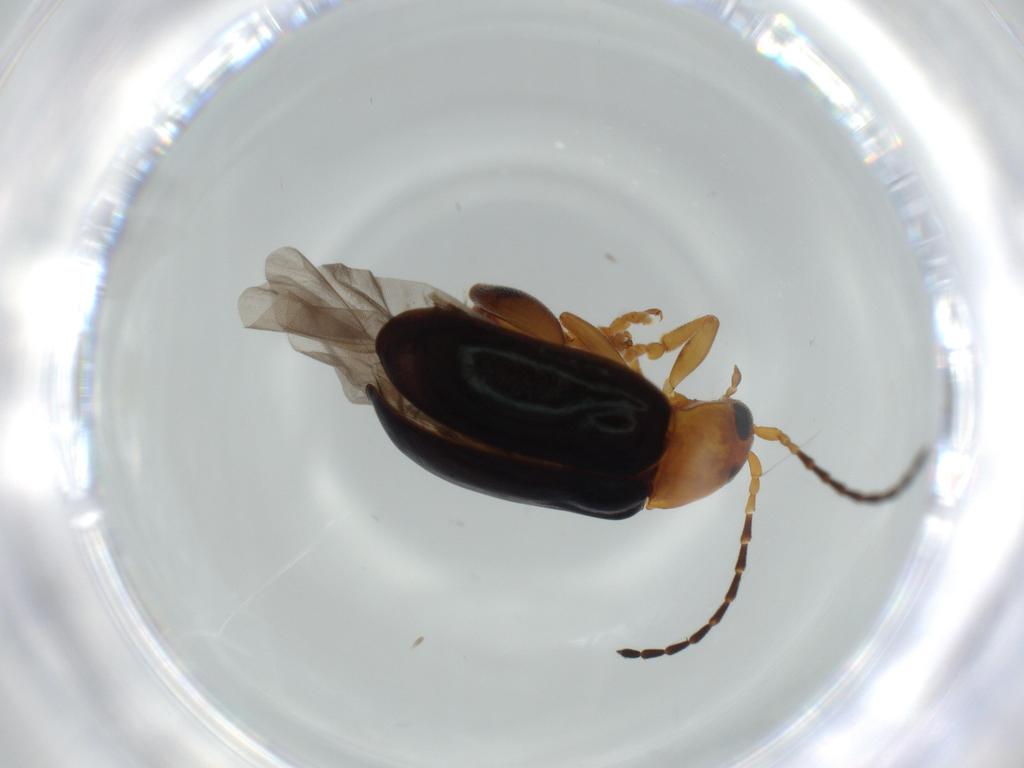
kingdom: Animalia
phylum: Arthropoda
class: Insecta
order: Coleoptera
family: Chrysomelidae
